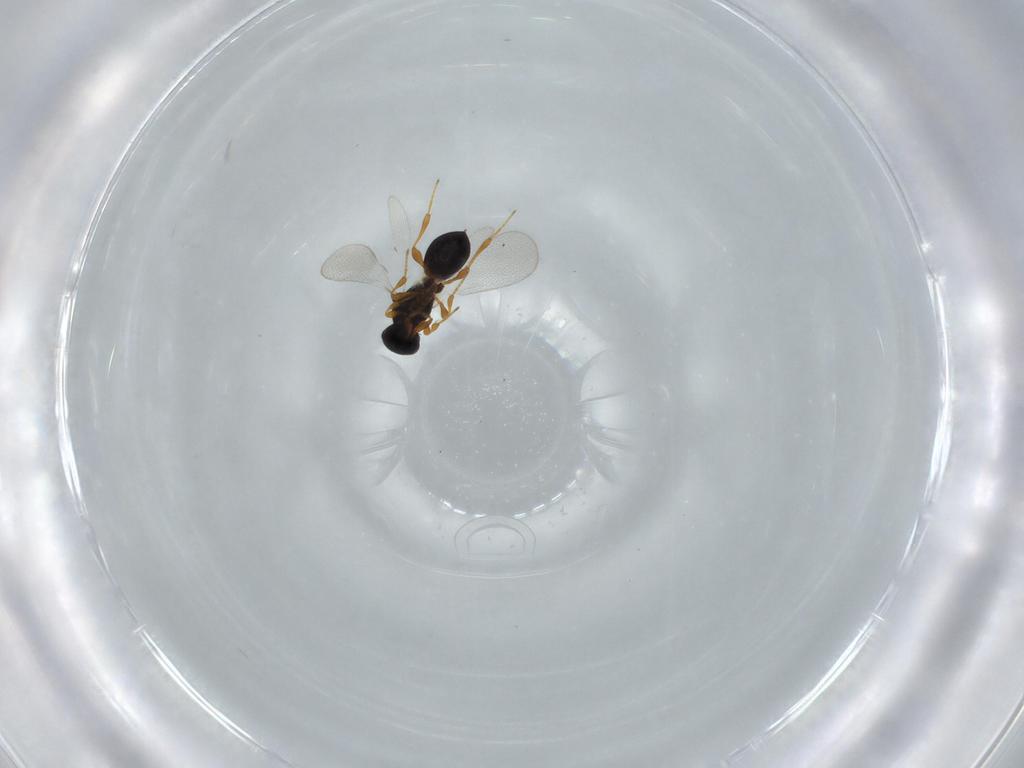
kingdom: Animalia
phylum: Arthropoda
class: Insecta
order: Hymenoptera
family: Platygastridae
